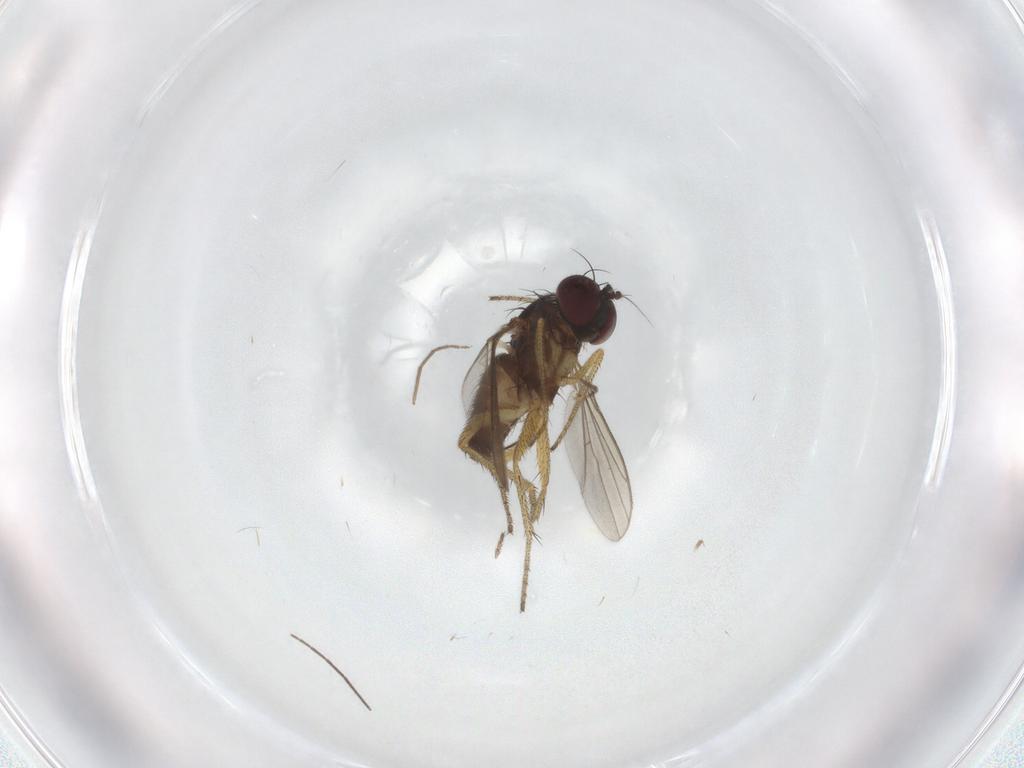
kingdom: Animalia
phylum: Arthropoda
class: Insecta
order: Diptera
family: Dolichopodidae
